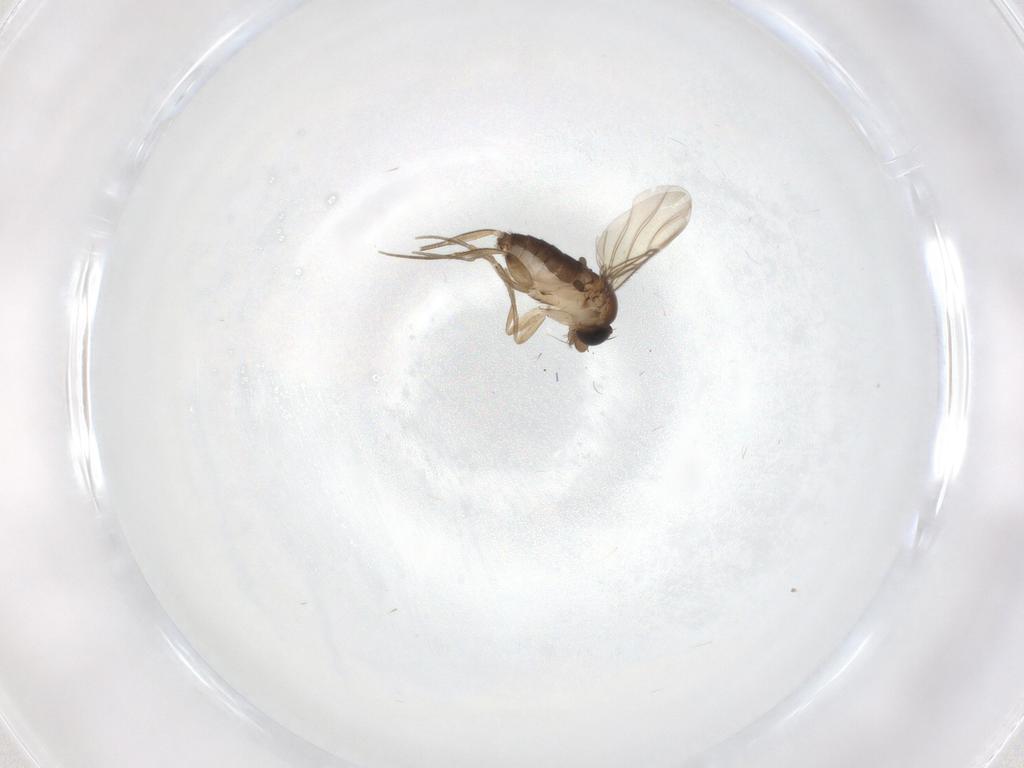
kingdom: Animalia
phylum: Arthropoda
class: Insecta
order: Diptera
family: Phoridae
